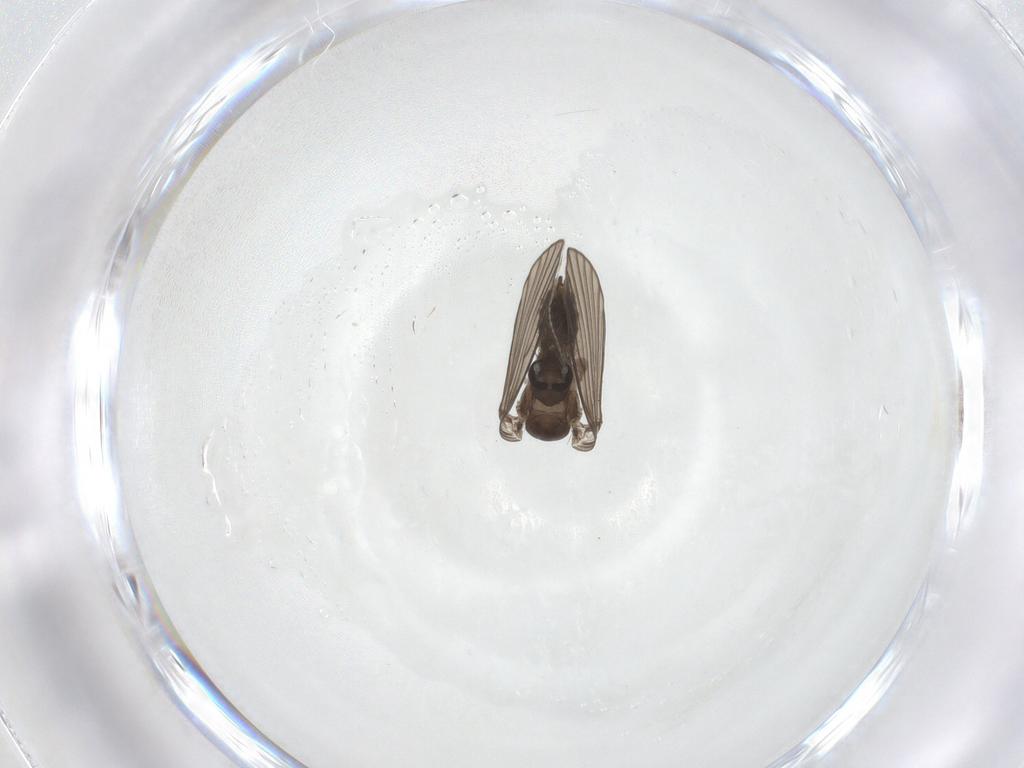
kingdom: Animalia
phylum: Arthropoda
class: Insecta
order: Diptera
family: Psychodidae
